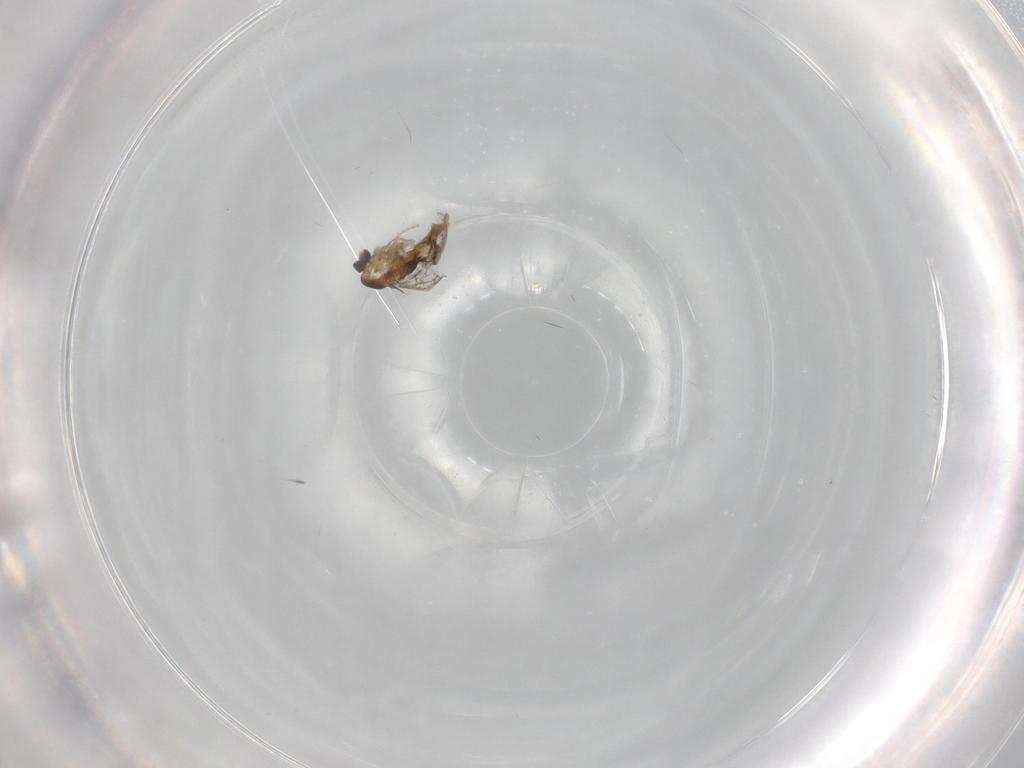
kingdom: Animalia
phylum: Arthropoda
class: Insecta
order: Diptera
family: Cecidomyiidae
